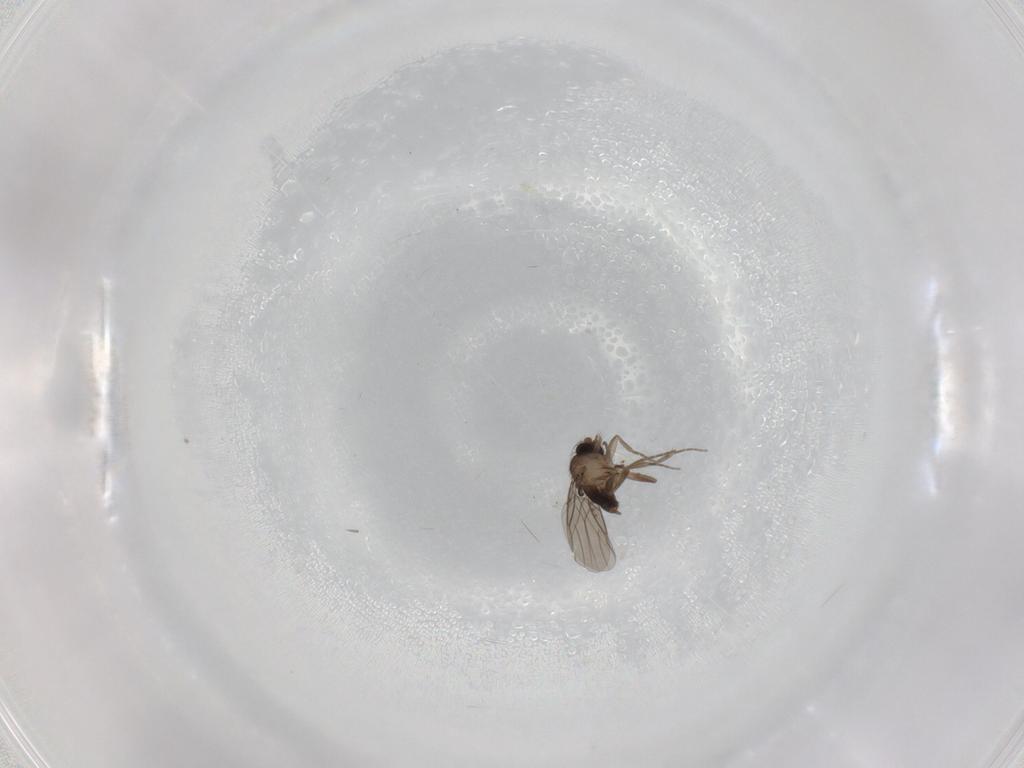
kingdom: Animalia
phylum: Arthropoda
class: Insecta
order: Diptera
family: Psychodidae
